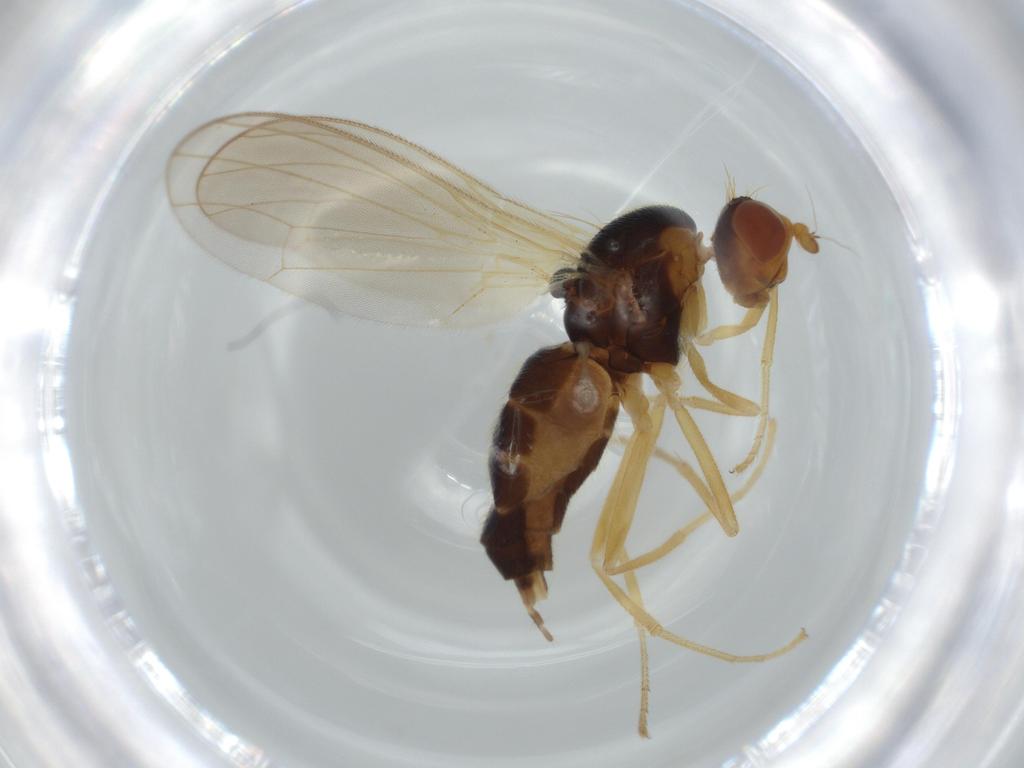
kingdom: Animalia
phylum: Arthropoda
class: Insecta
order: Diptera
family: Psilidae
